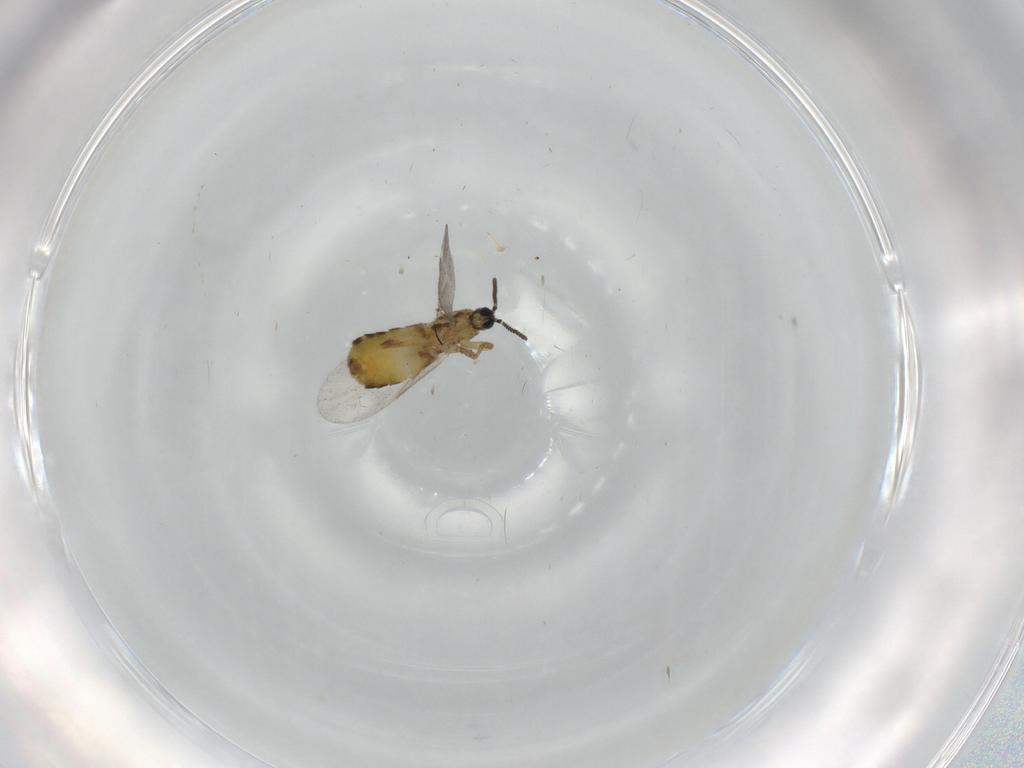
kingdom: Animalia
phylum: Arthropoda
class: Insecta
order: Diptera
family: Scatopsidae
